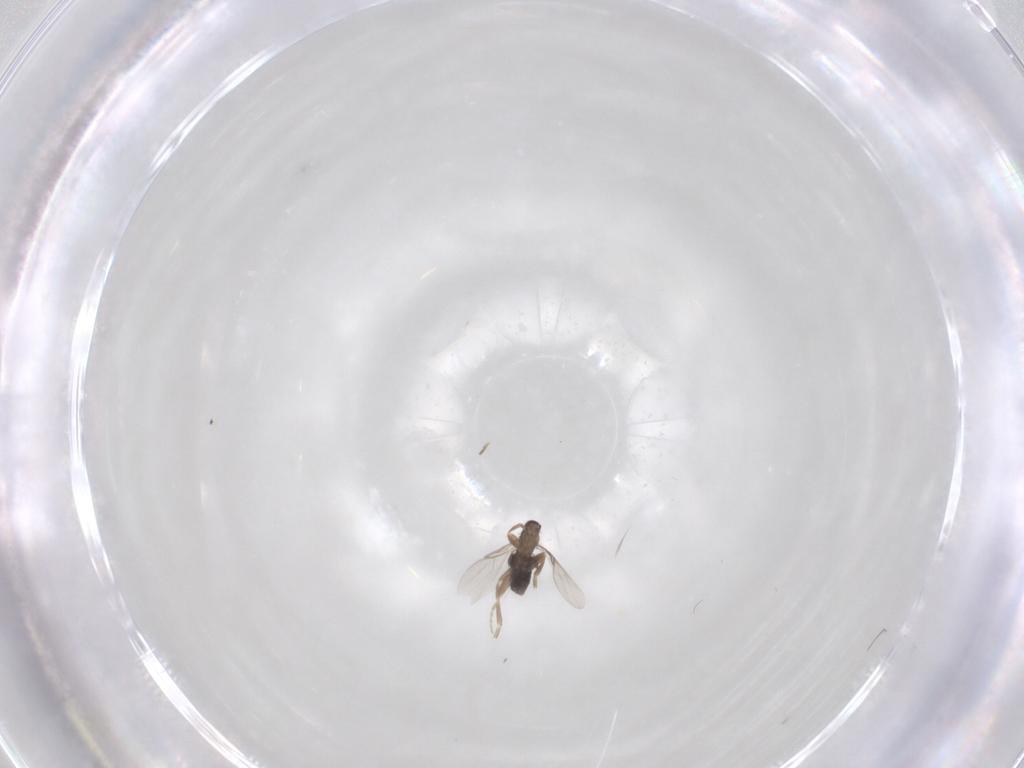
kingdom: Animalia
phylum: Arthropoda
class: Insecta
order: Diptera
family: Phoridae
